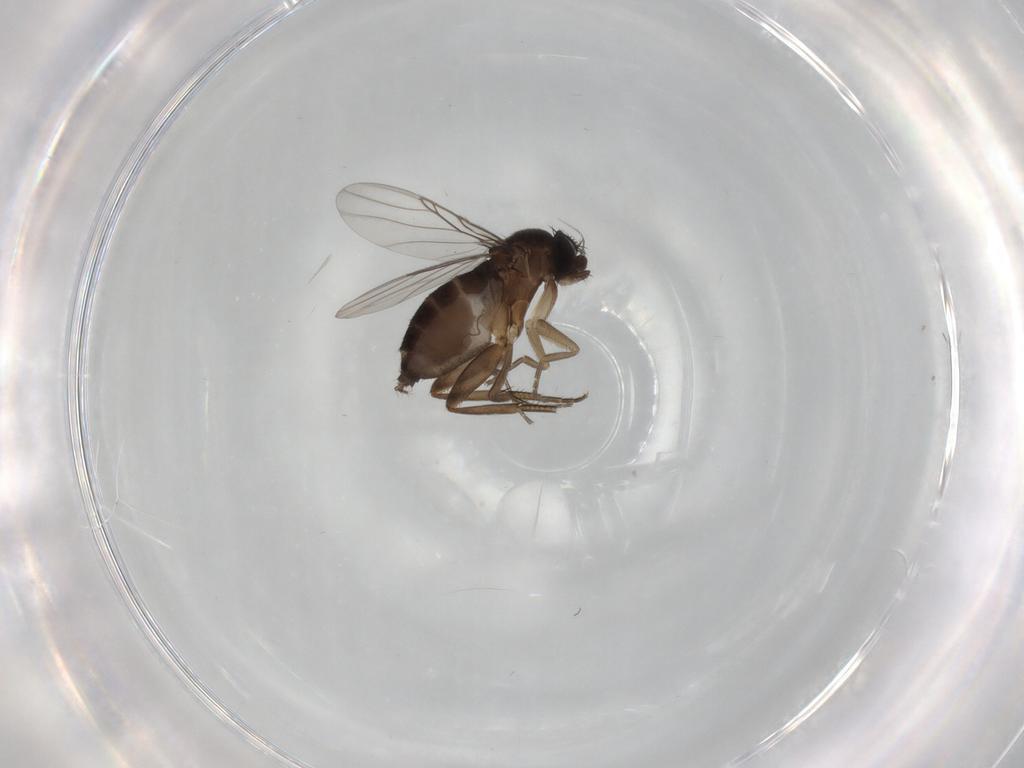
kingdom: Animalia
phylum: Arthropoda
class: Insecta
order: Diptera
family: Phoridae
